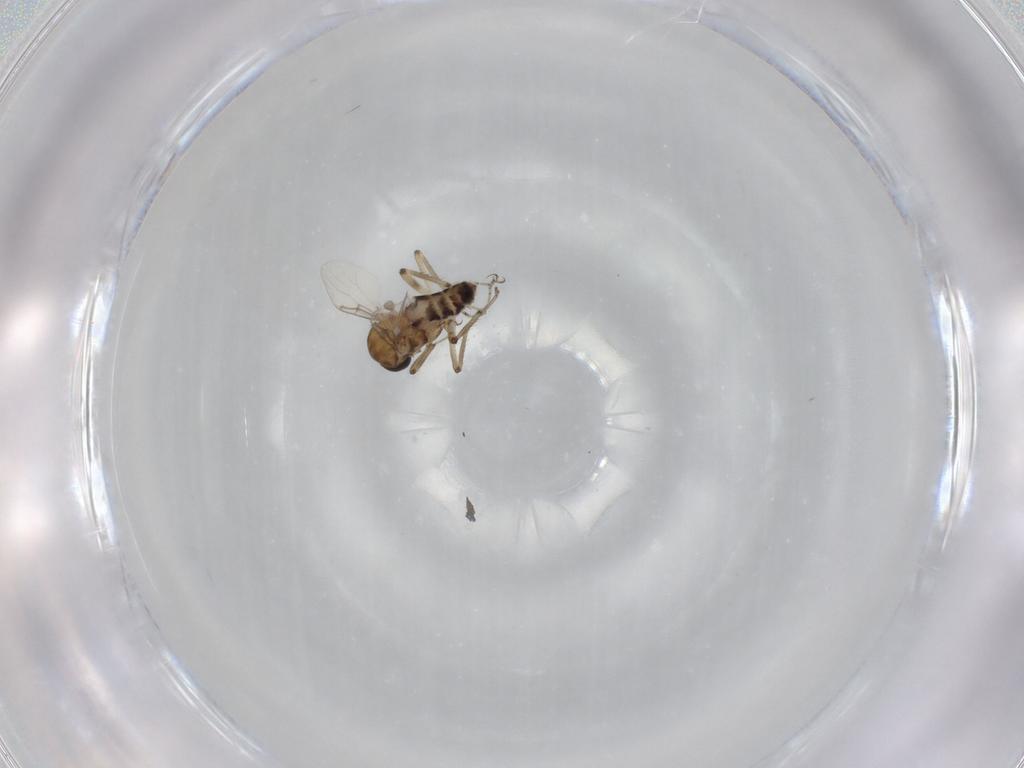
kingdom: Animalia
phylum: Arthropoda
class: Insecta
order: Diptera
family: Ceratopogonidae
